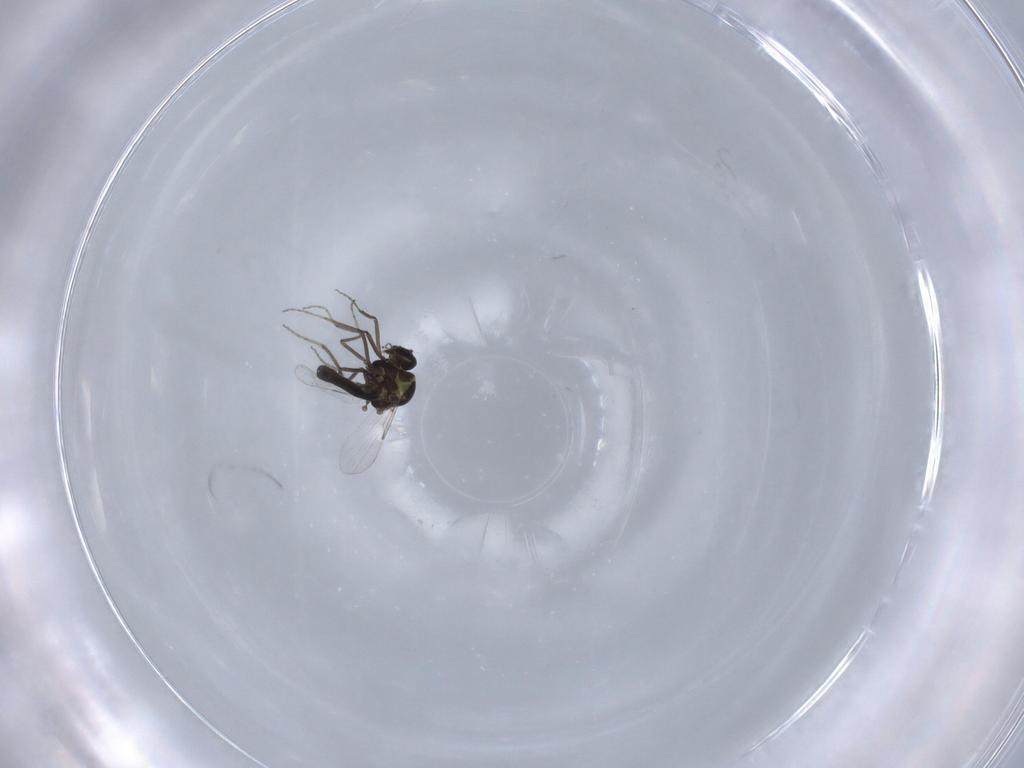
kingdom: Animalia
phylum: Arthropoda
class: Insecta
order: Diptera
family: Ceratopogonidae
